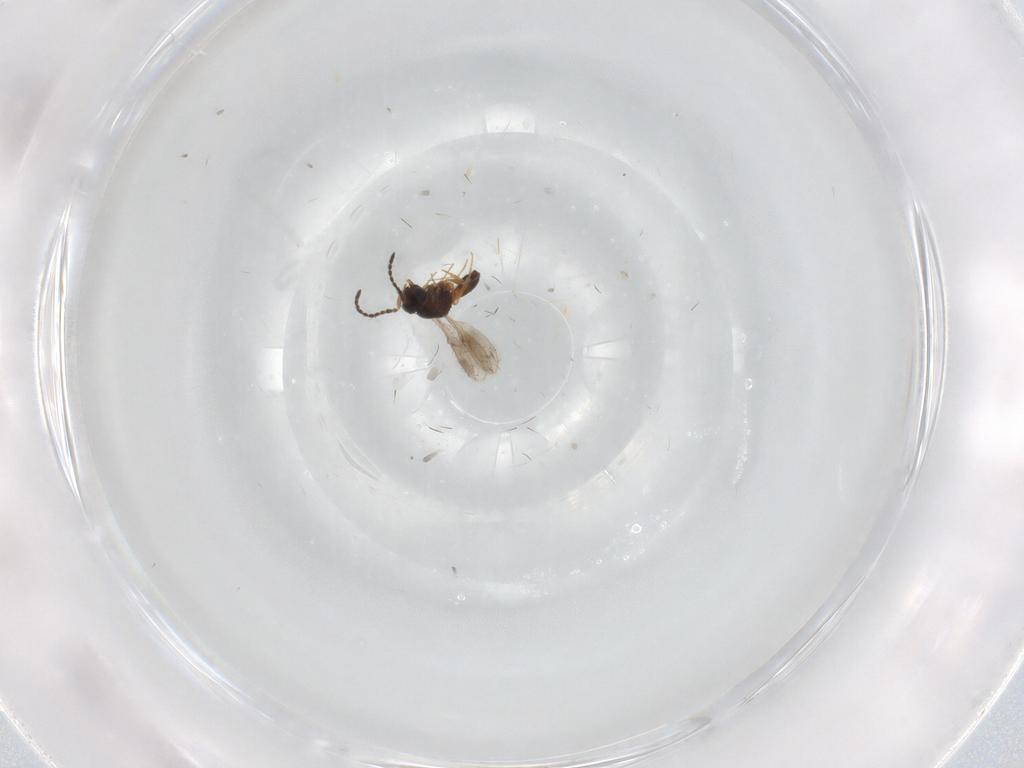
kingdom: Animalia
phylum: Arthropoda
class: Insecta
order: Hymenoptera
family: Scelionidae
